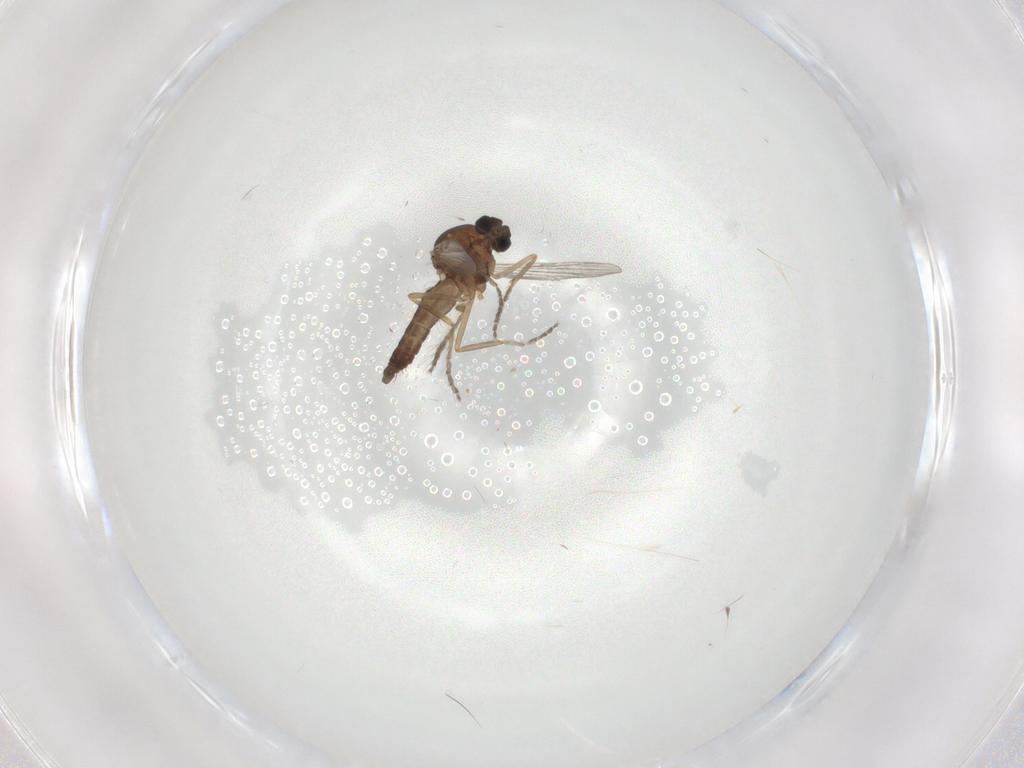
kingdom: Animalia
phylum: Arthropoda
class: Insecta
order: Diptera
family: Ceratopogonidae
